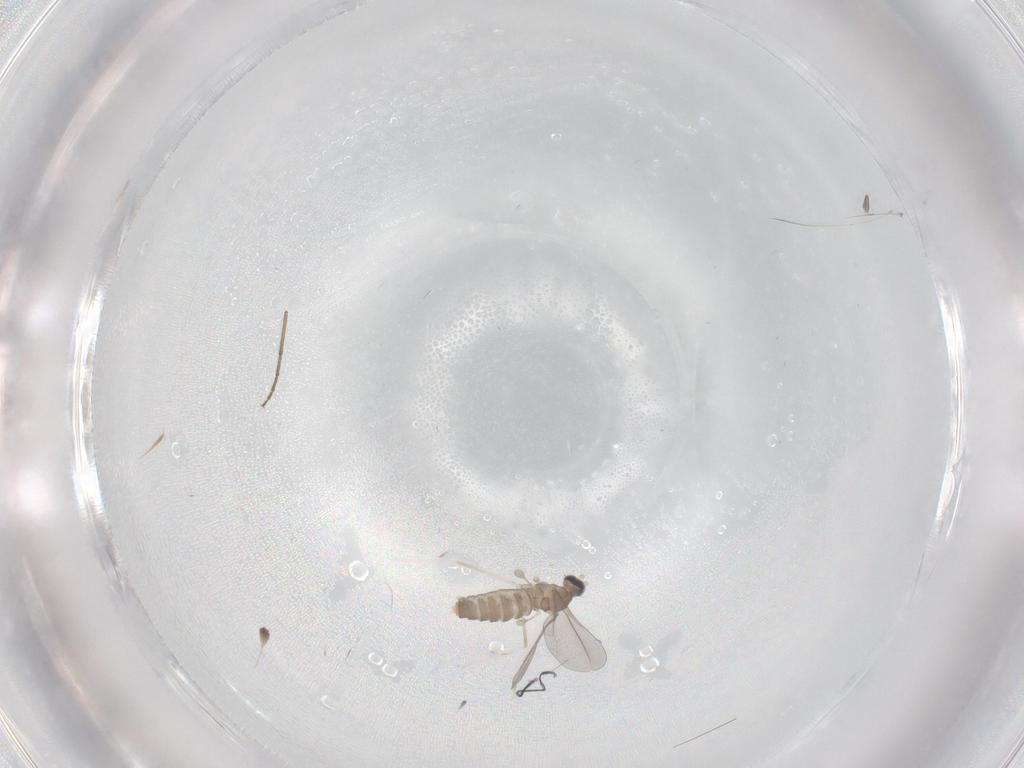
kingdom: Animalia
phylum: Arthropoda
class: Insecta
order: Diptera
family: Cecidomyiidae
